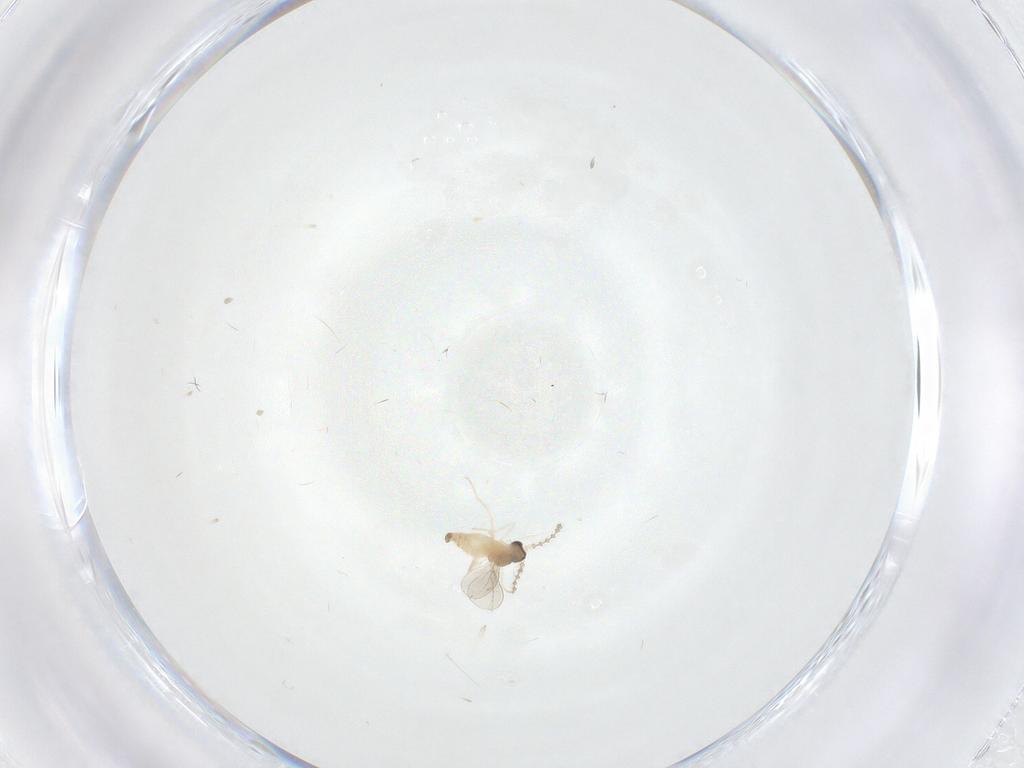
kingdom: Animalia
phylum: Arthropoda
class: Insecta
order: Diptera
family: Cecidomyiidae
